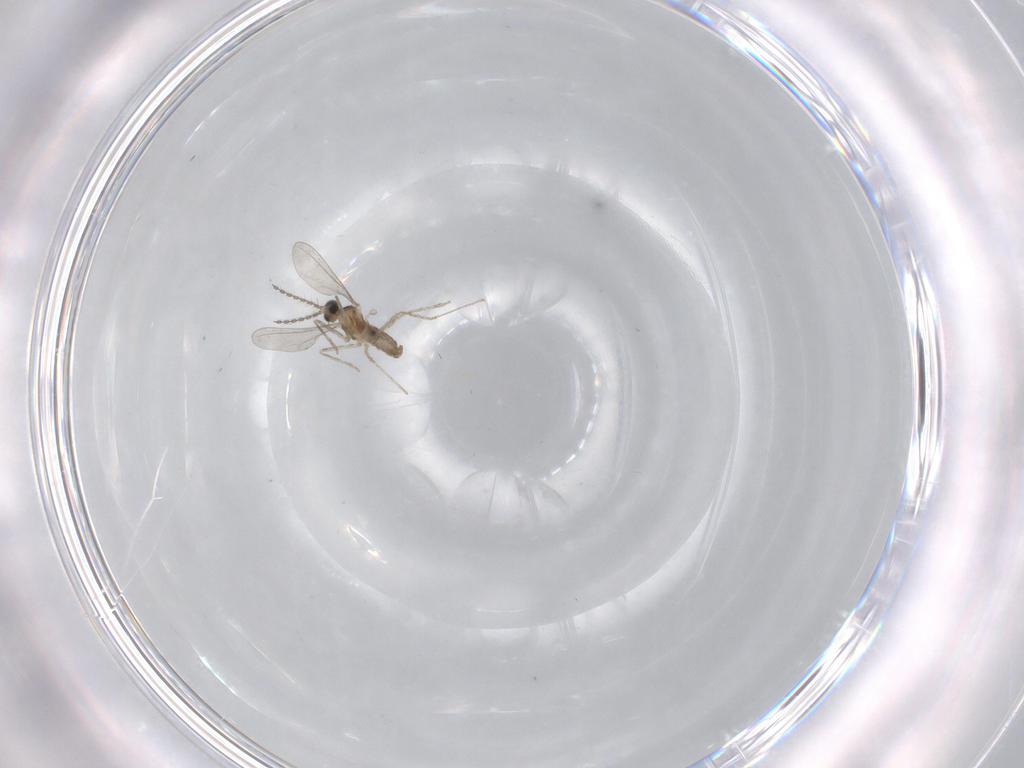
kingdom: Animalia
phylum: Arthropoda
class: Insecta
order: Diptera
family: Cecidomyiidae
